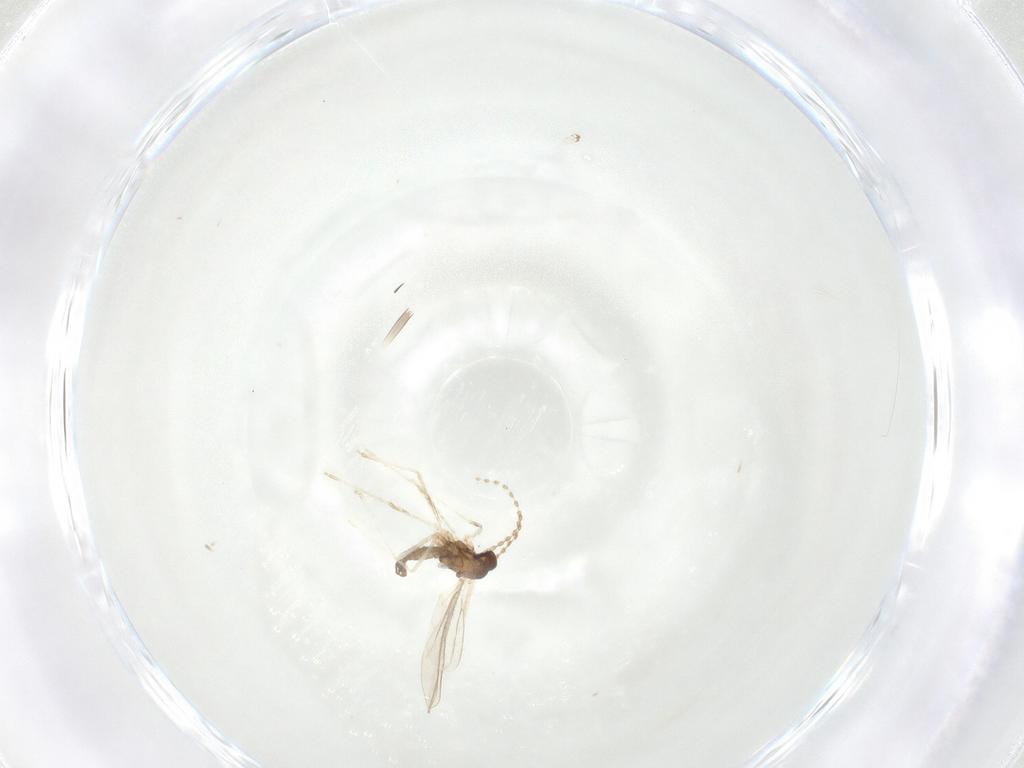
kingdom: Animalia
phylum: Arthropoda
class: Insecta
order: Diptera
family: Cecidomyiidae
